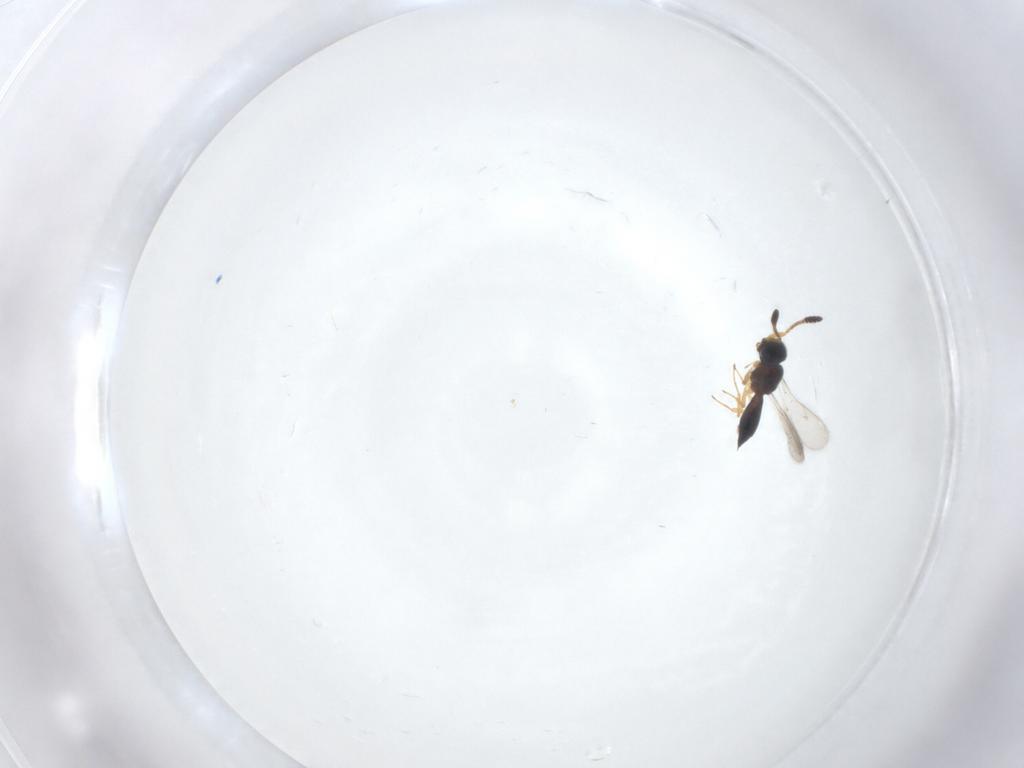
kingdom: Animalia
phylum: Arthropoda
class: Insecta
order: Hymenoptera
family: Scelionidae
